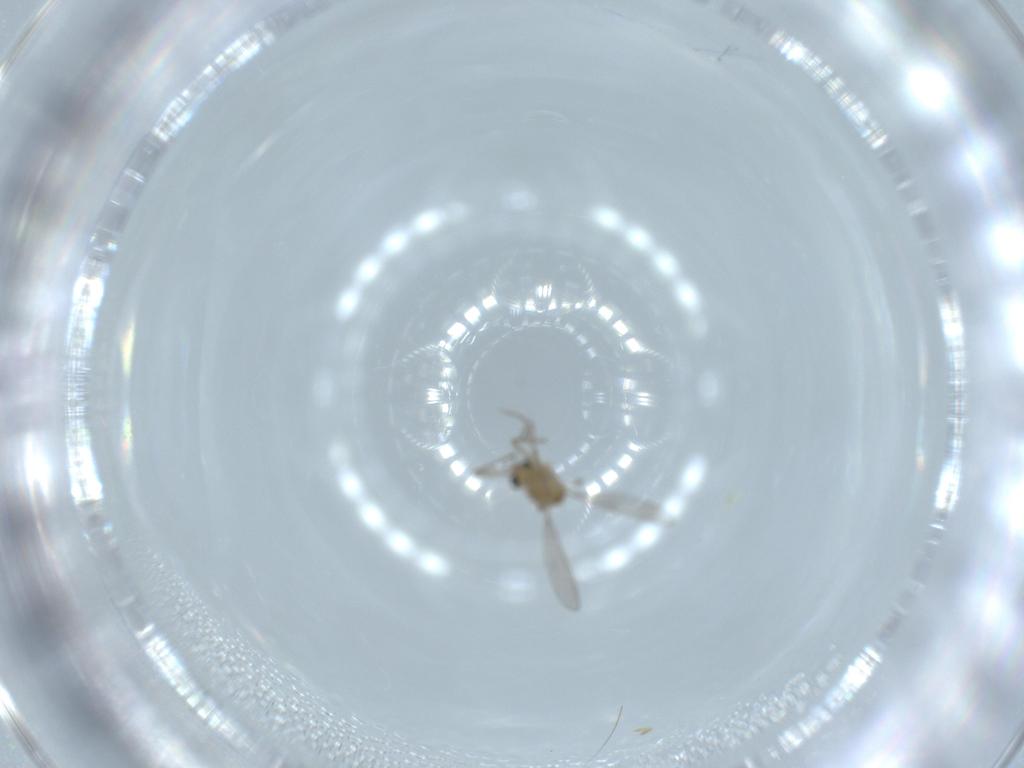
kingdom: Animalia
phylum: Arthropoda
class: Insecta
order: Diptera
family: Chironomidae
